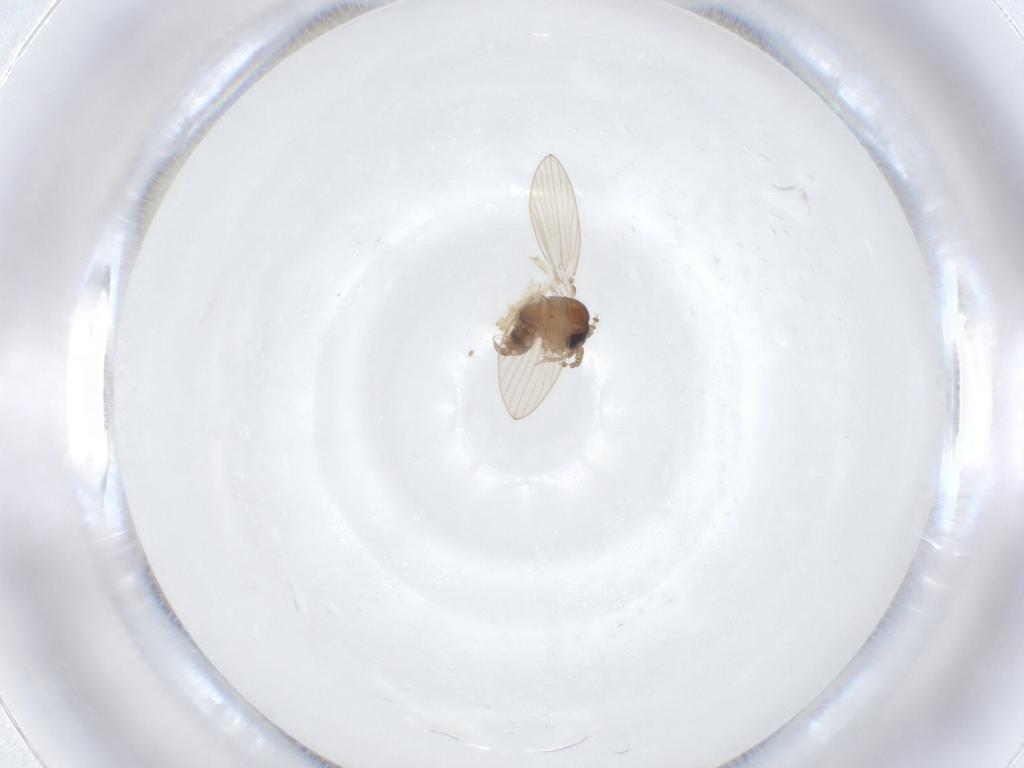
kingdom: Animalia
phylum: Arthropoda
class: Insecta
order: Diptera
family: Psychodidae
